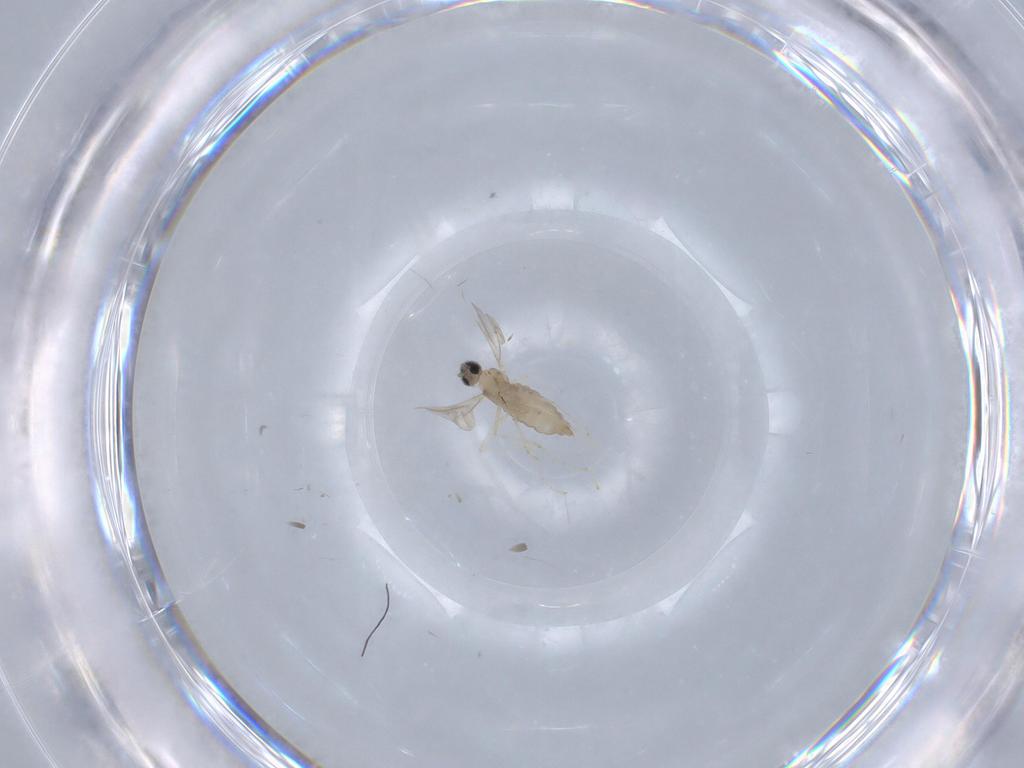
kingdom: Animalia
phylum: Arthropoda
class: Insecta
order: Diptera
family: Cecidomyiidae
